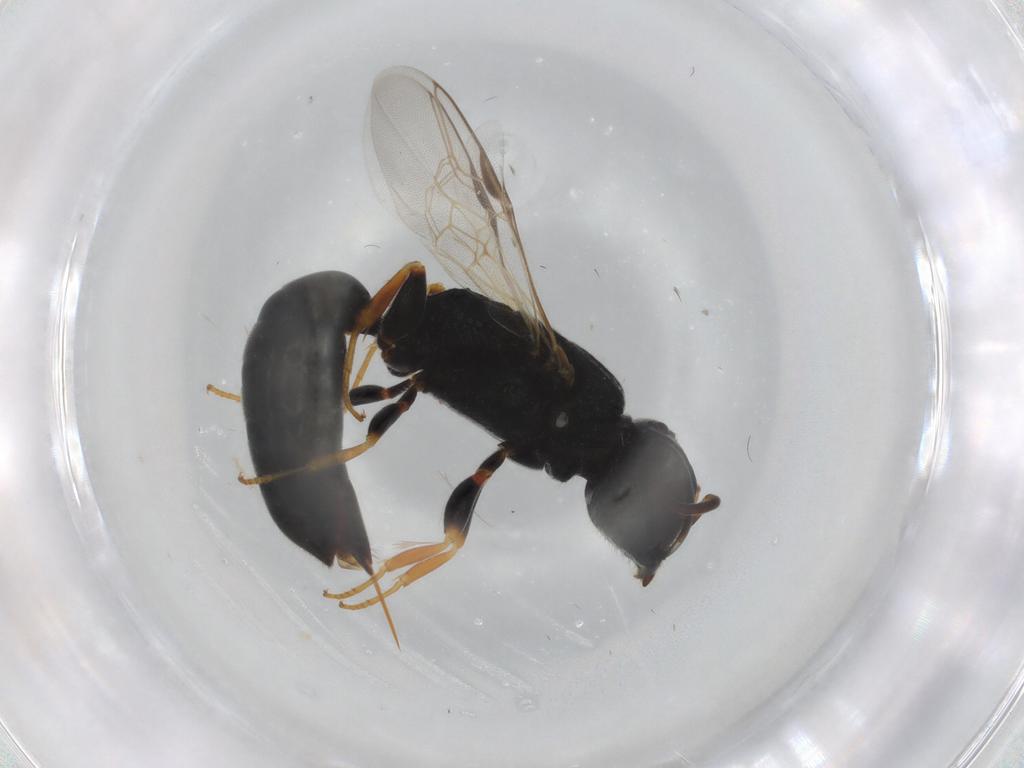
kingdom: Animalia
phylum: Arthropoda
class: Insecta
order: Hymenoptera
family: Crabronidae
